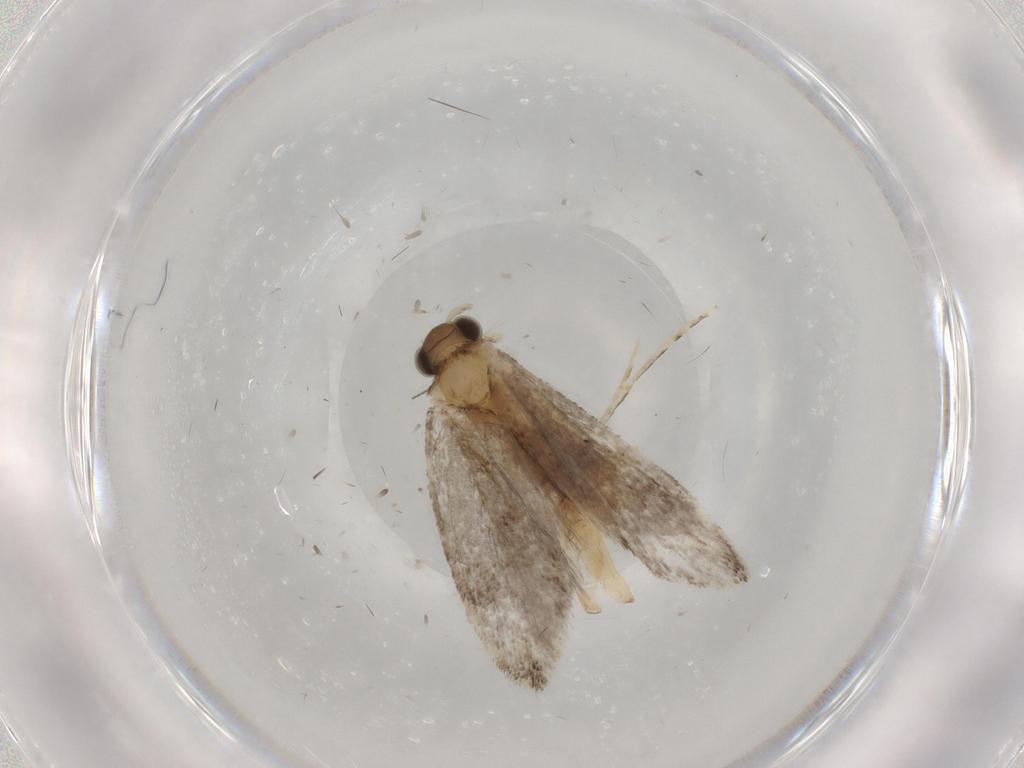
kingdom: Animalia
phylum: Arthropoda
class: Insecta
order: Lepidoptera
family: Tineidae
